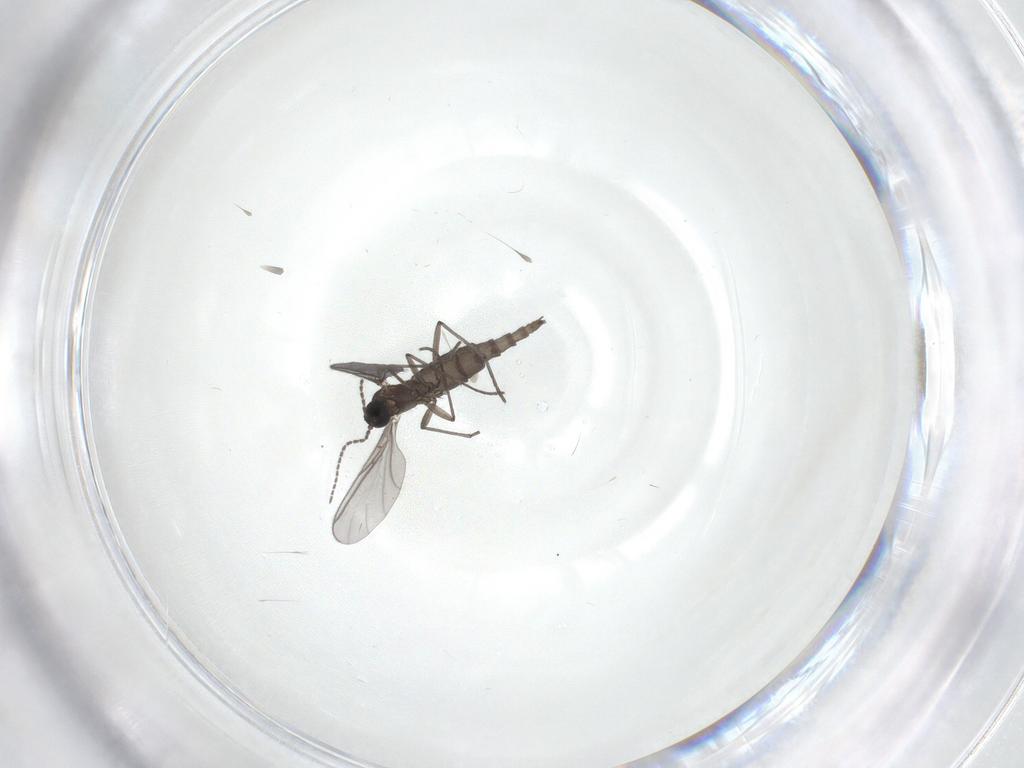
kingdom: Animalia
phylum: Arthropoda
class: Insecta
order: Diptera
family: Sciaridae
